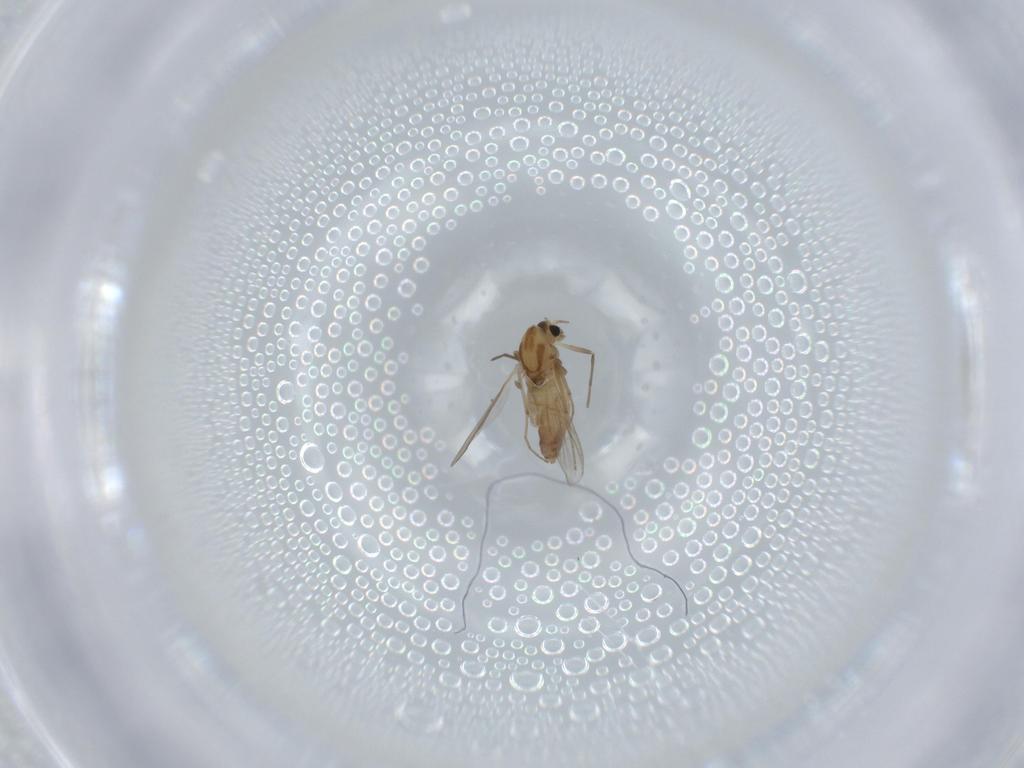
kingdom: Animalia
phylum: Arthropoda
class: Insecta
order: Diptera
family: Chironomidae
